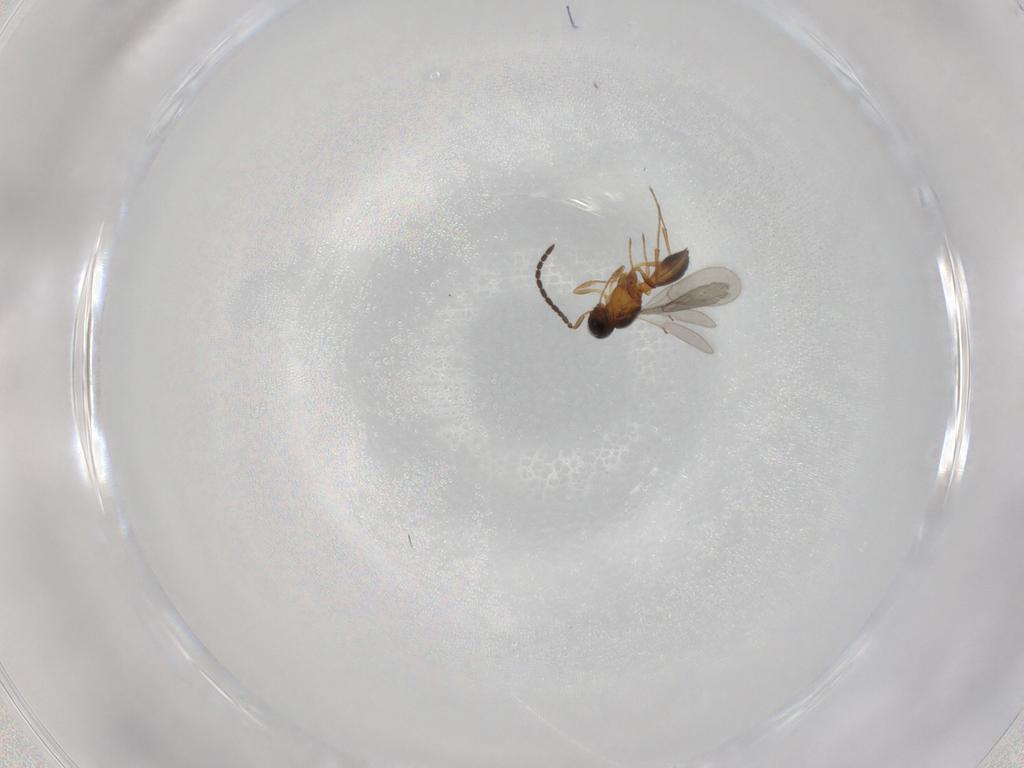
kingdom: Animalia
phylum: Arthropoda
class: Insecta
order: Hymenoptera
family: Scelionidae
